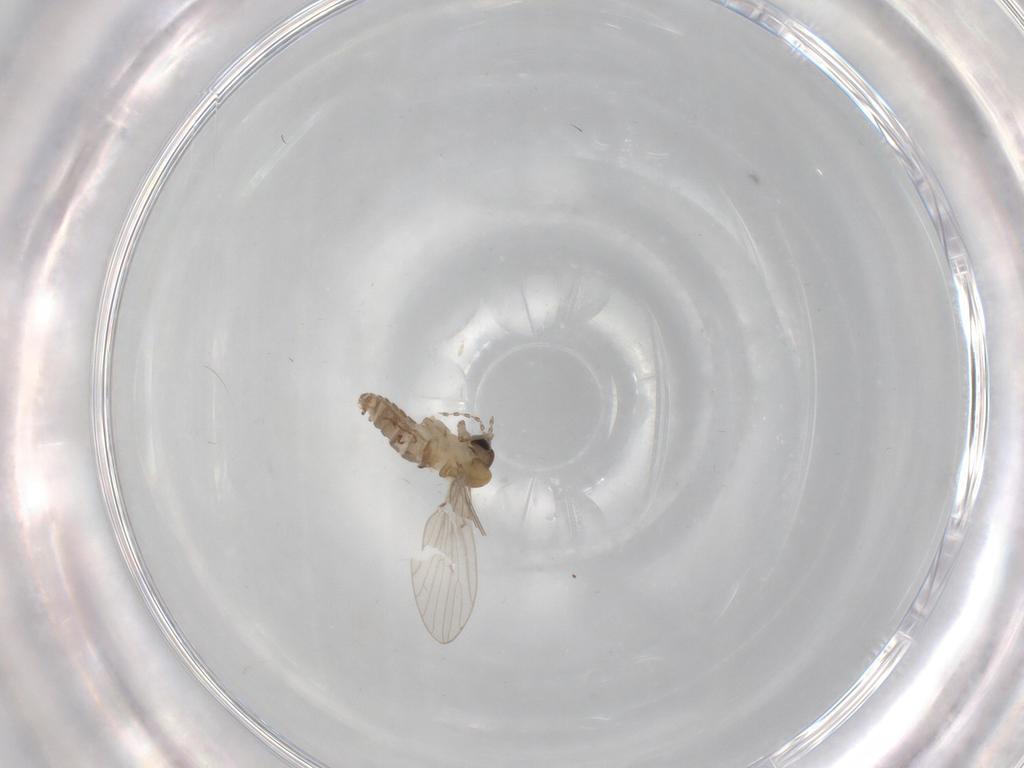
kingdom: Animalia
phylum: Arthropoda
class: Insecta
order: Diptera
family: Psychodidae
